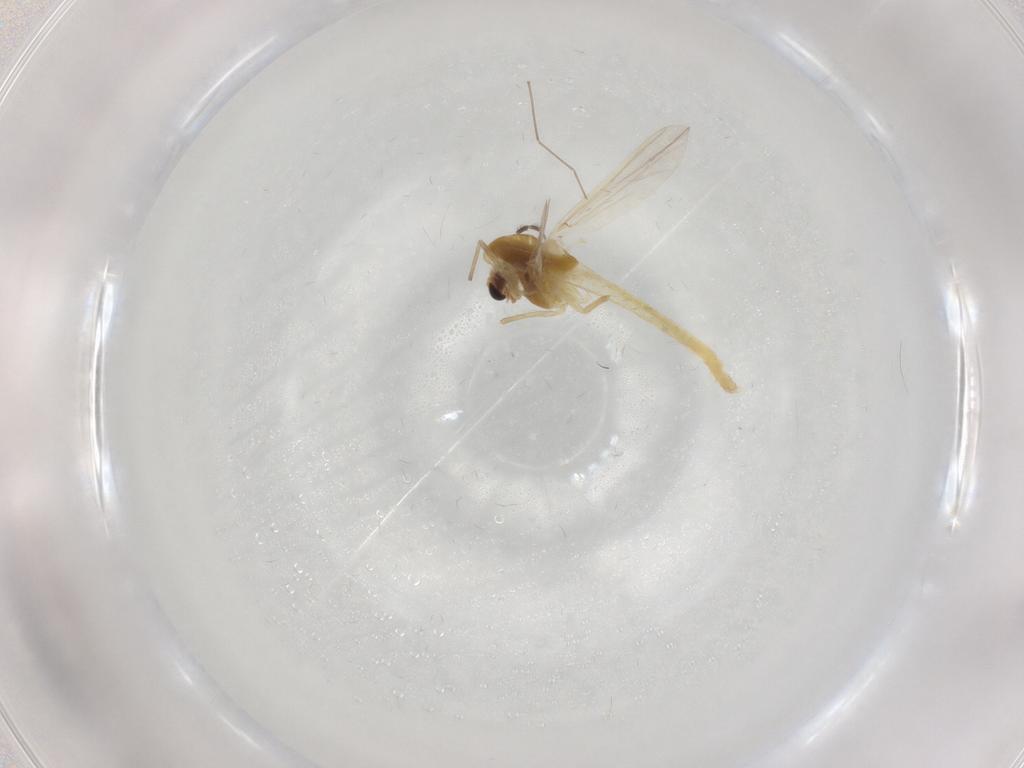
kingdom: Animalia
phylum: Arthropoda
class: Insecta
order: Diptera
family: Chironomidae
